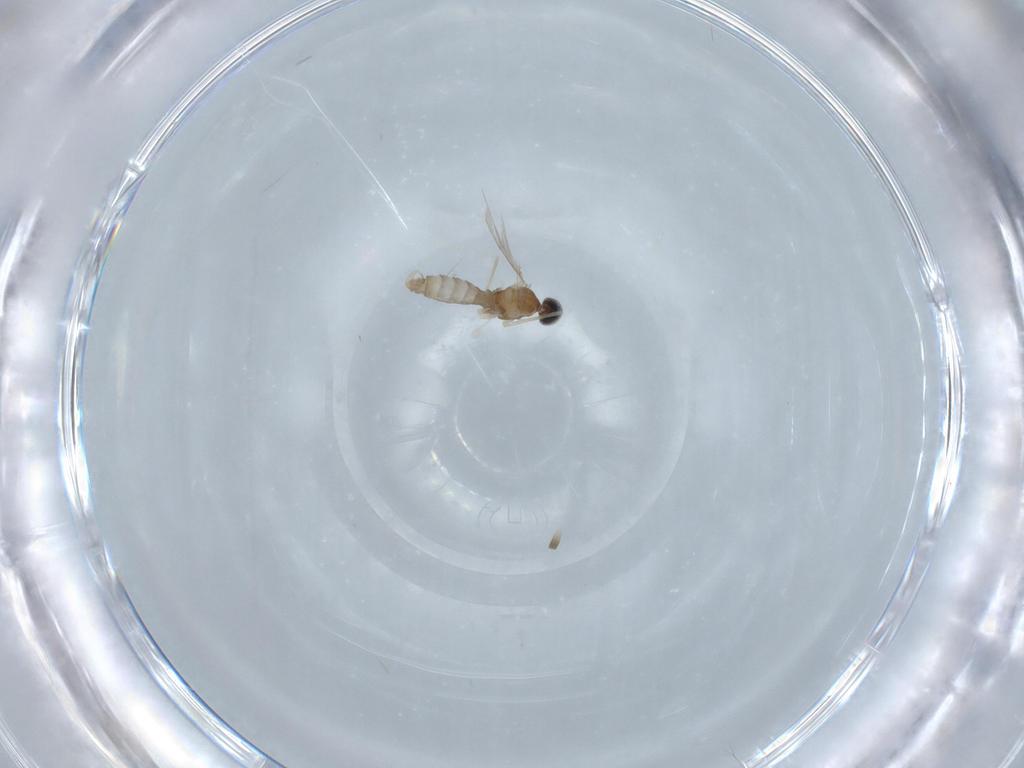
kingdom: Animalia
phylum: Arthropoda
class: Insecta
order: Diptera
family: Cecidomyiidae
